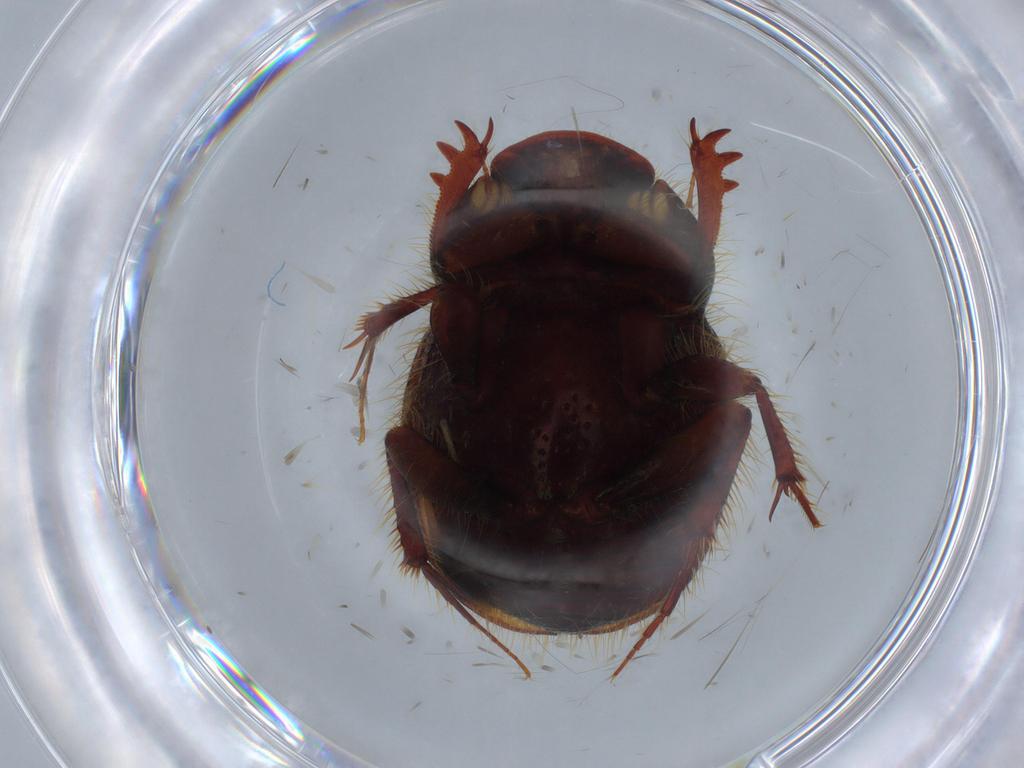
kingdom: Animalia
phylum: Arthropoda
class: Insecta
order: Coleoptera
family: Scarabaeidae
